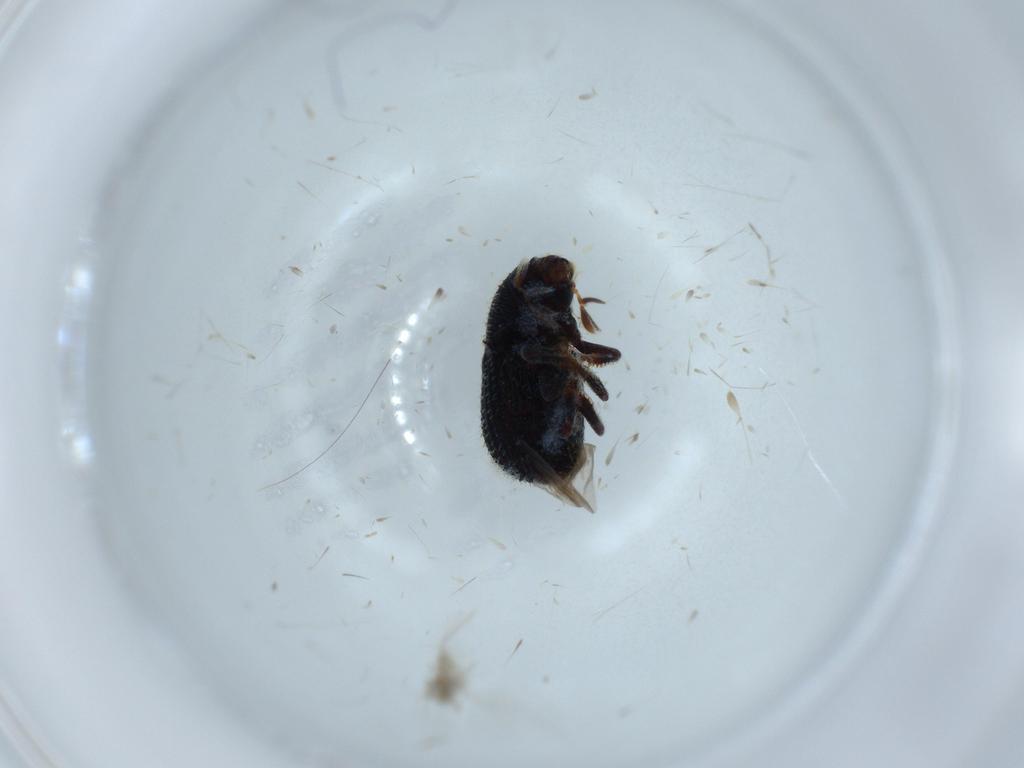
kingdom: Animalia
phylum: Arthropoda
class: Insecta
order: Coleoptera
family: Curculionidae
